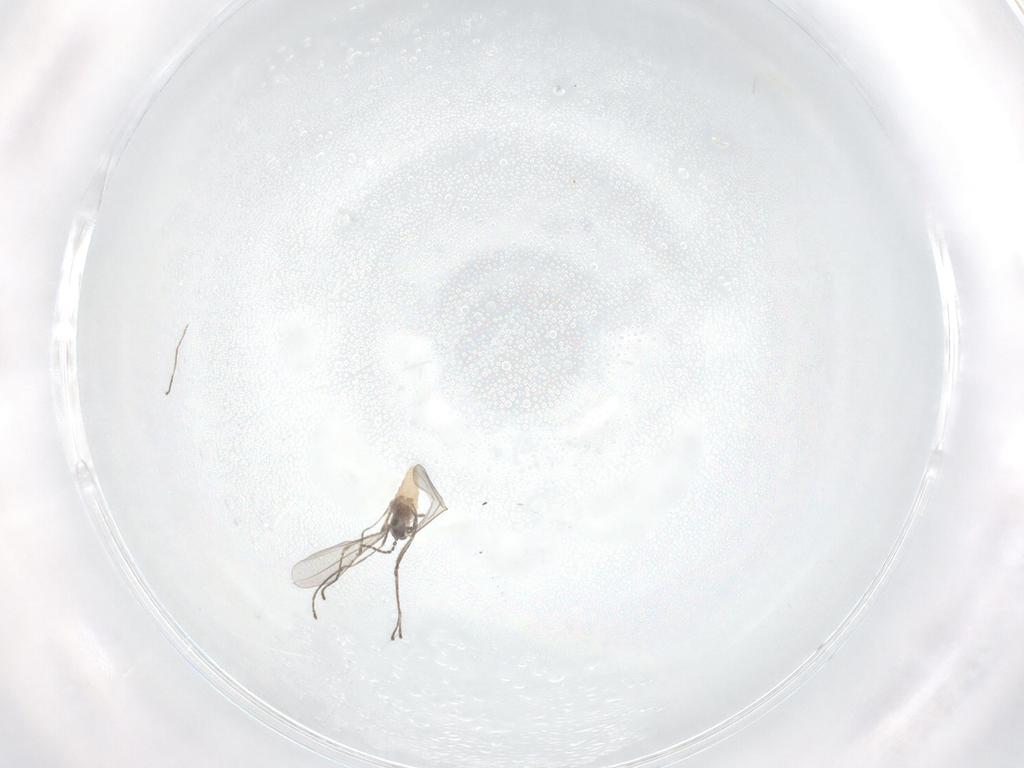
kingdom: Animalia
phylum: Arthropoda
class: Insecta
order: Diptera
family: Cecidomyiidae
